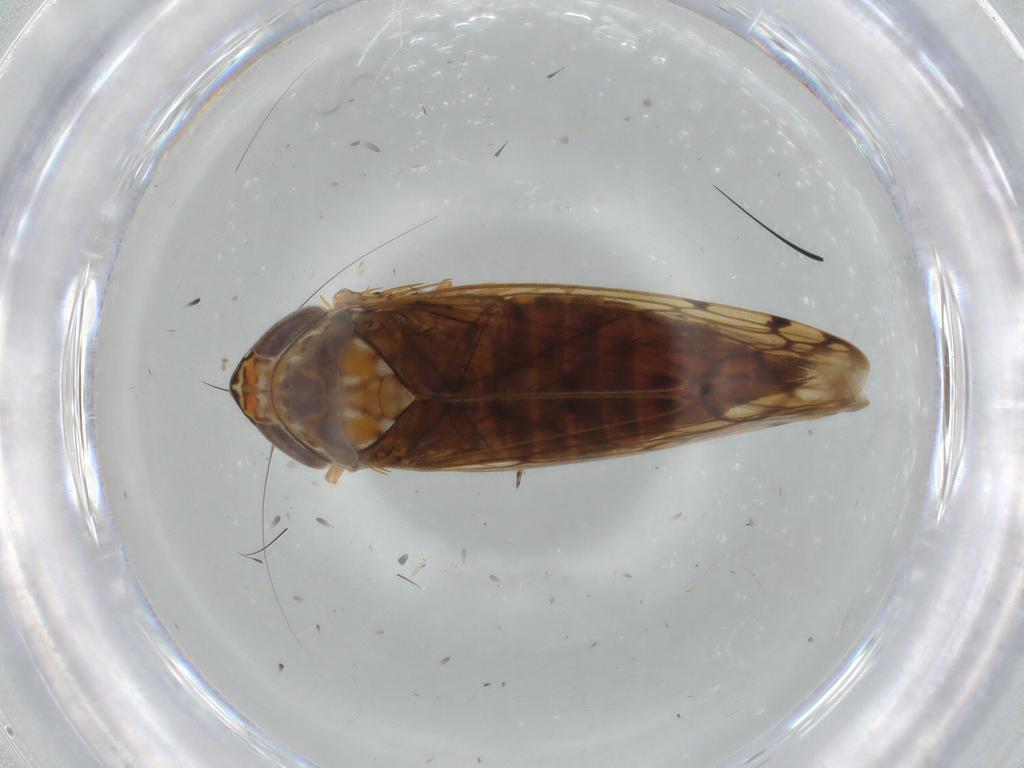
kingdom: Animalia
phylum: Arthropoda
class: Insecta
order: Hemiptera
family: Cicadellidae
